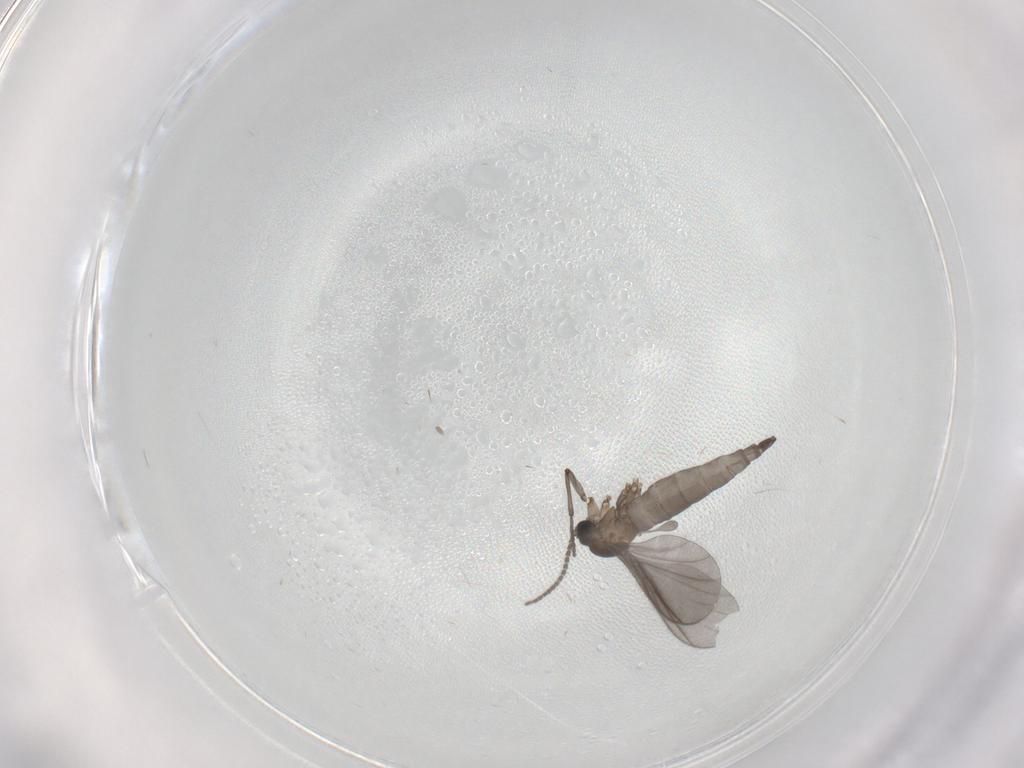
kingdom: Animalia
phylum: Arthropoda
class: Insecta
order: Diptera
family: Sciaridae
